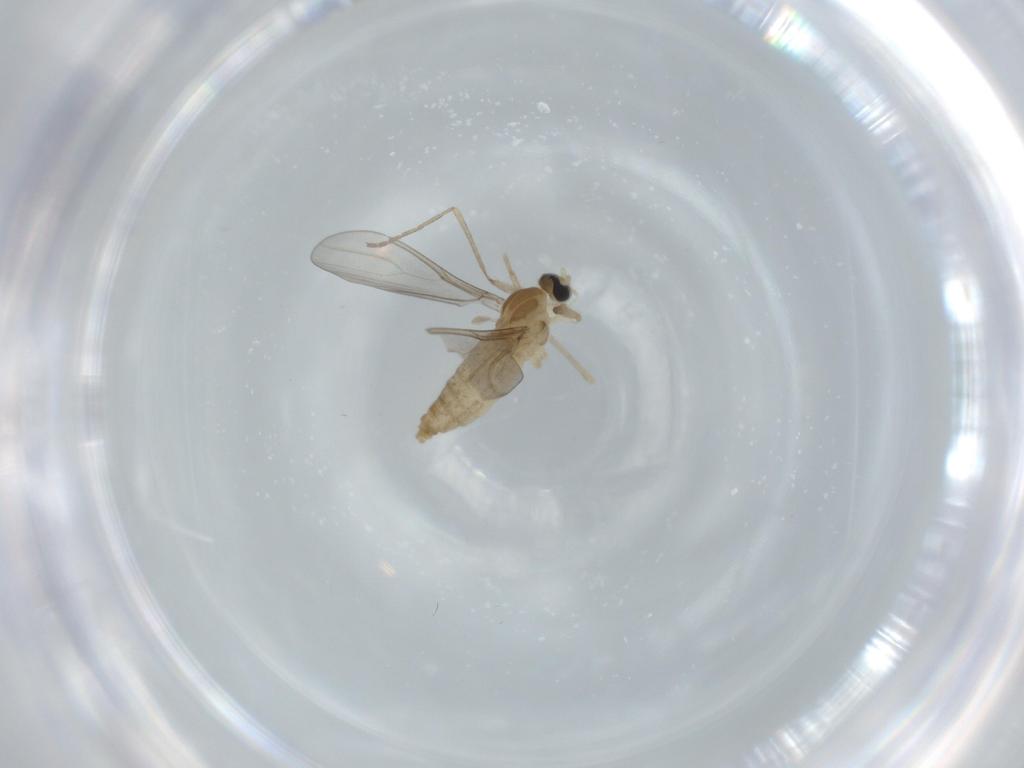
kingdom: Animalia
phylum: Arthropoda
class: Insecta
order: Diptera
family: Cecidomyiidae
